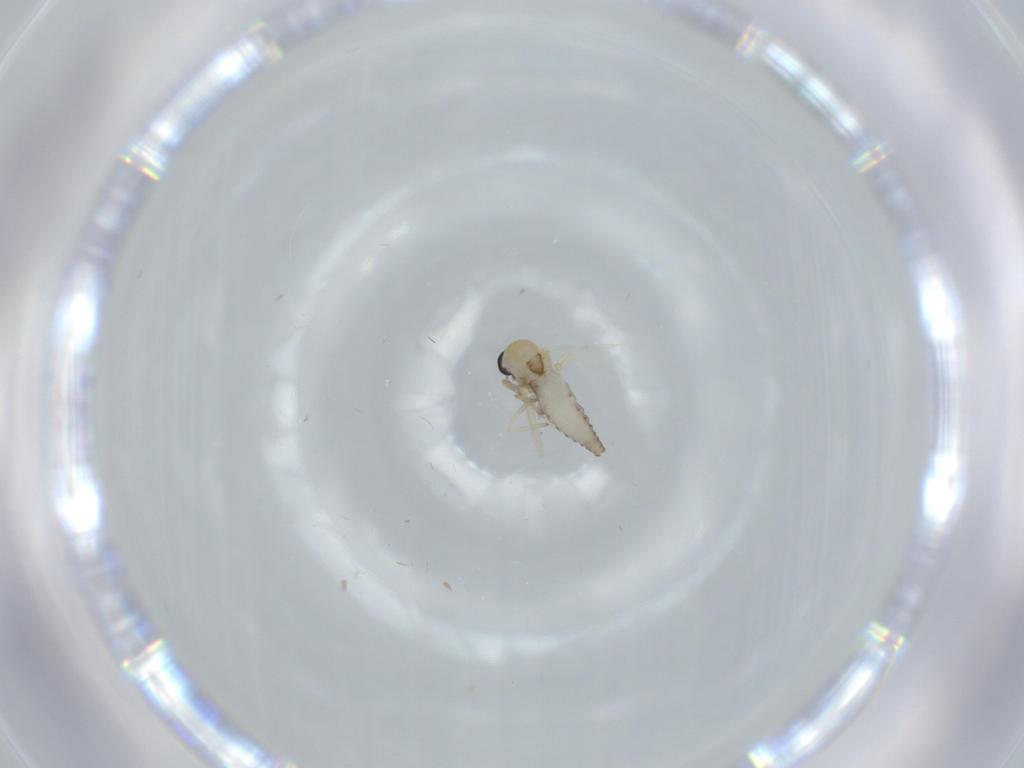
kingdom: Animalia
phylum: Arthropoda
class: Insecta
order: Diptera
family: Ceratopogonidae
